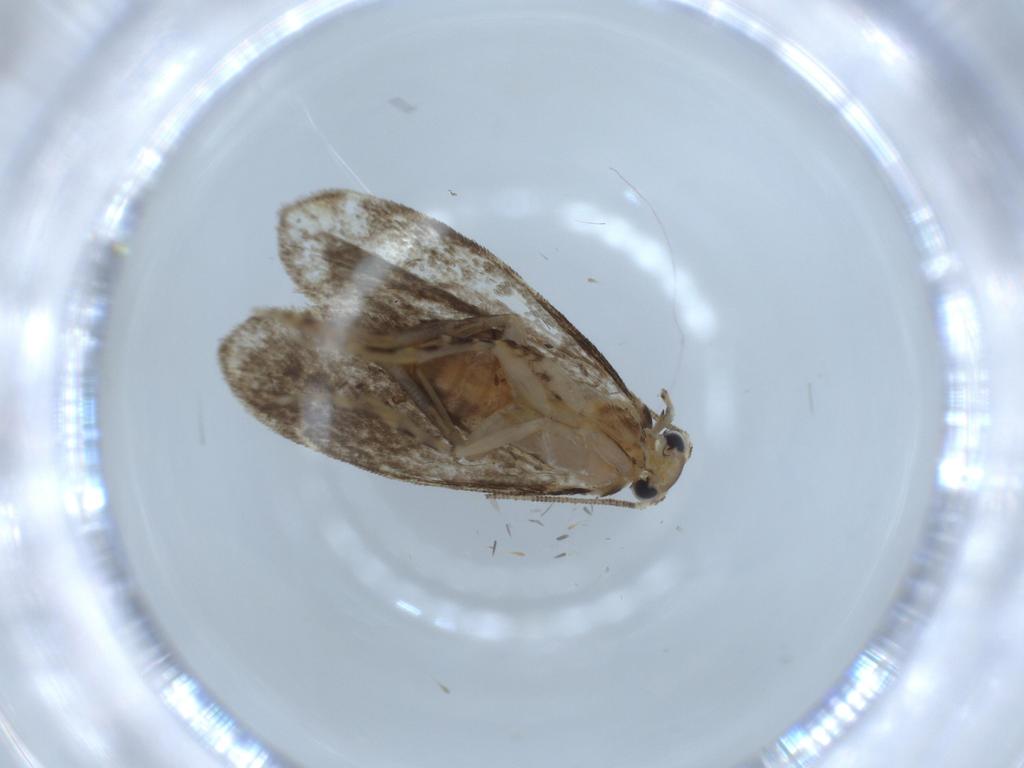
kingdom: Animalia
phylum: Arthropoda
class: Insecta
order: Lepidoptera
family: Tineidae
